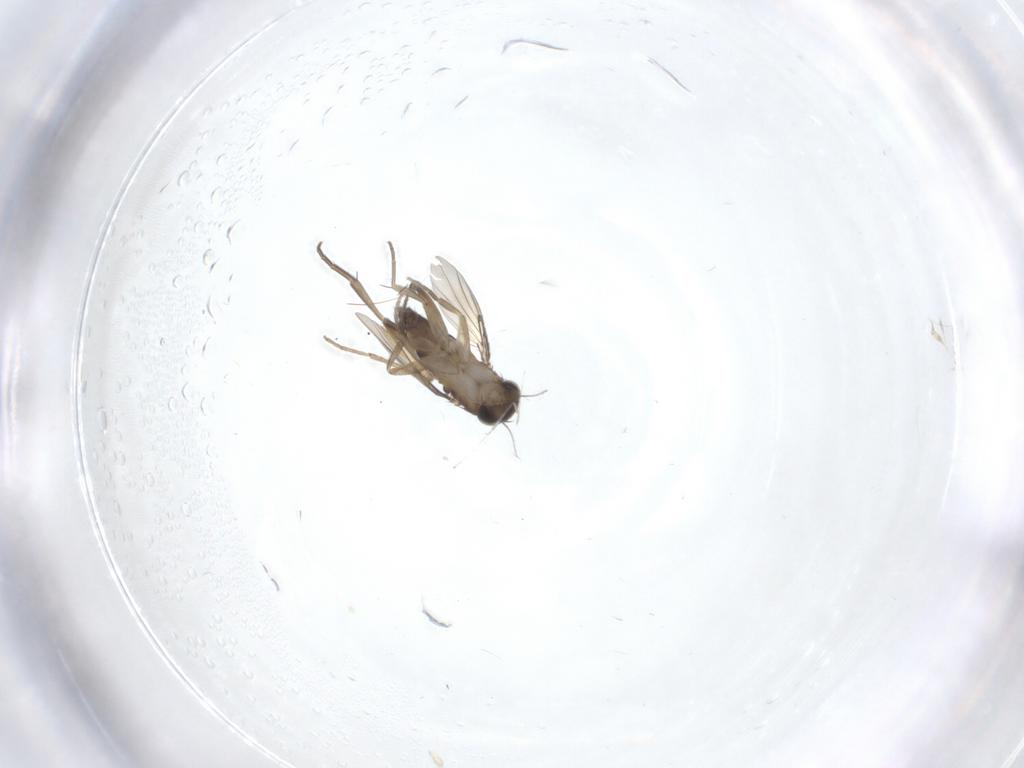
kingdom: Animalia
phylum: Arthropoda
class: Insecta
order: Diptera
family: Phoridae
